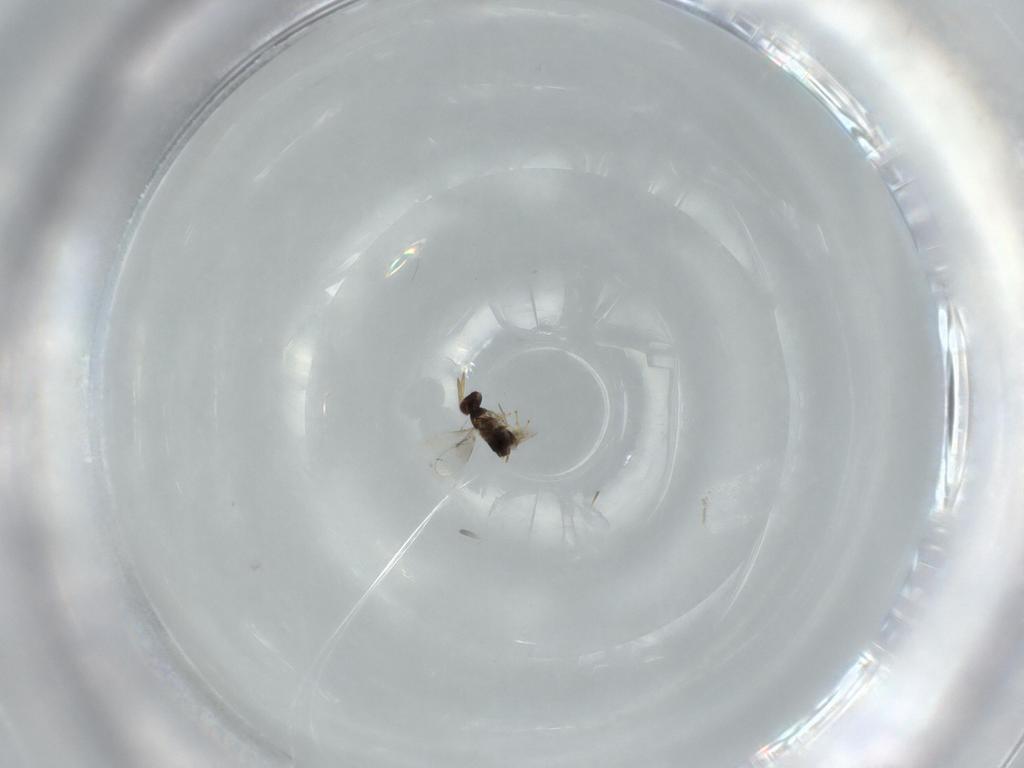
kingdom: Animalia
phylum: Arthropoda
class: Insecta
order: Hymenoptera
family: Aphelinidae
